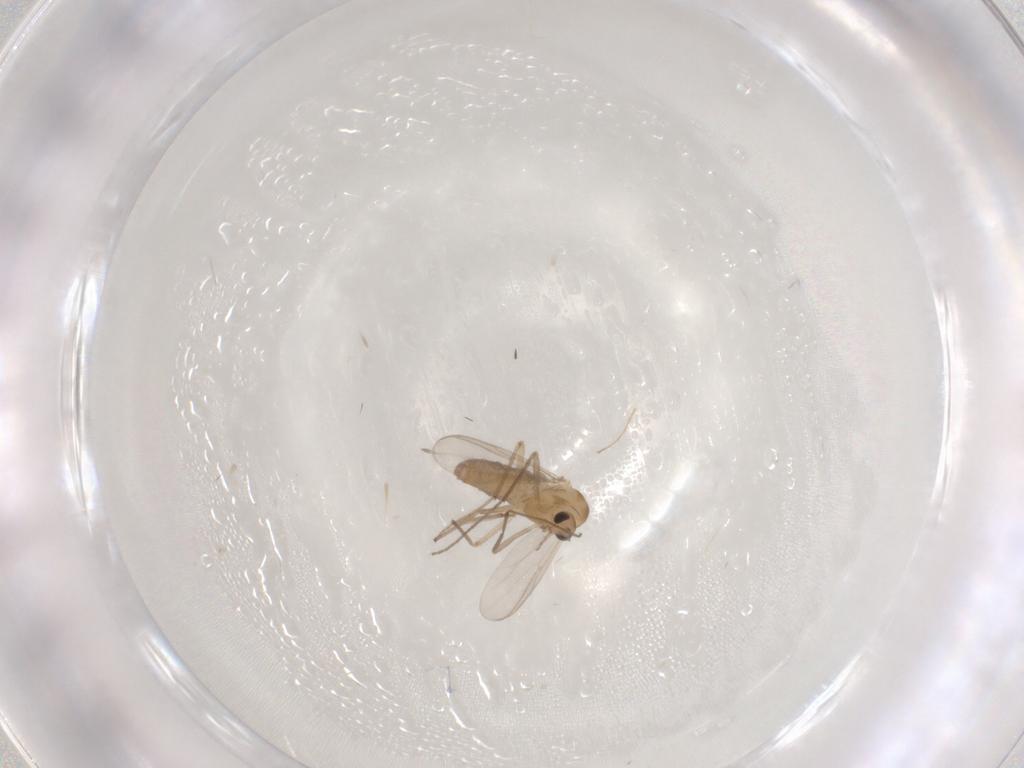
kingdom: Animalia
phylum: Arthropoda
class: Insecta
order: Diptera
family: Chironomidae
